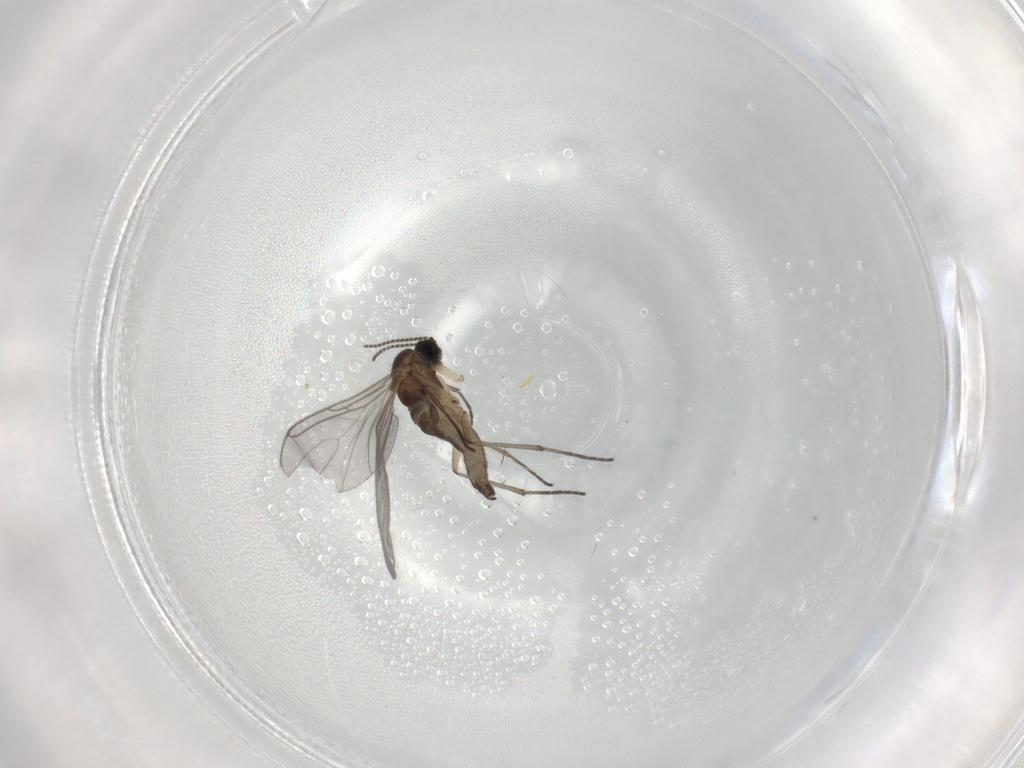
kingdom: Animalia
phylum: Arthropoda
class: Insecta
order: Diptera
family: Sciaridae
